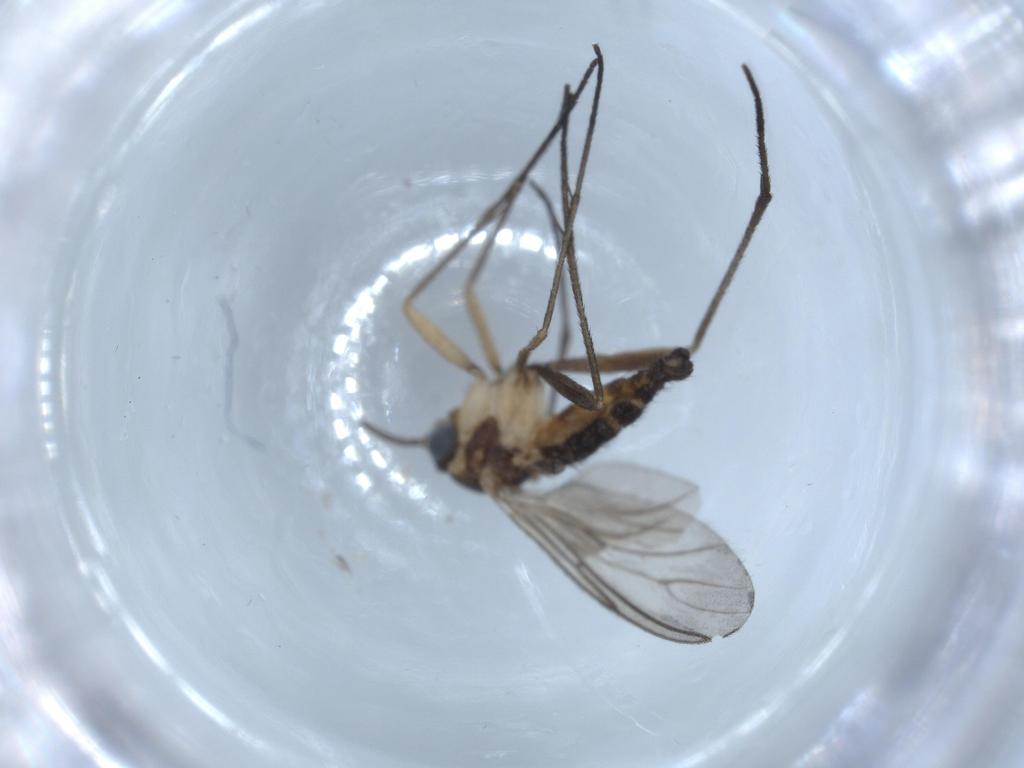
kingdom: Animalia
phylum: Arthropoda
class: Insecta
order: Diptera
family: Sciaridae
